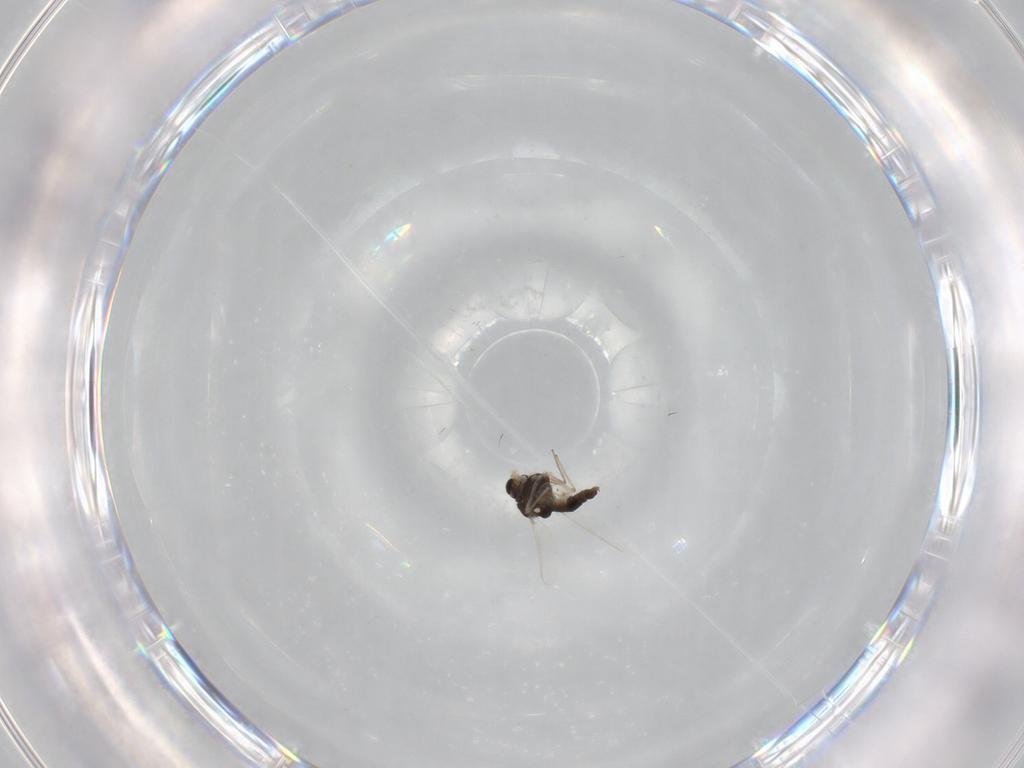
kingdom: Animalia
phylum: Arthropoda
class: Insecta
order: Diptera
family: Chironomidae
